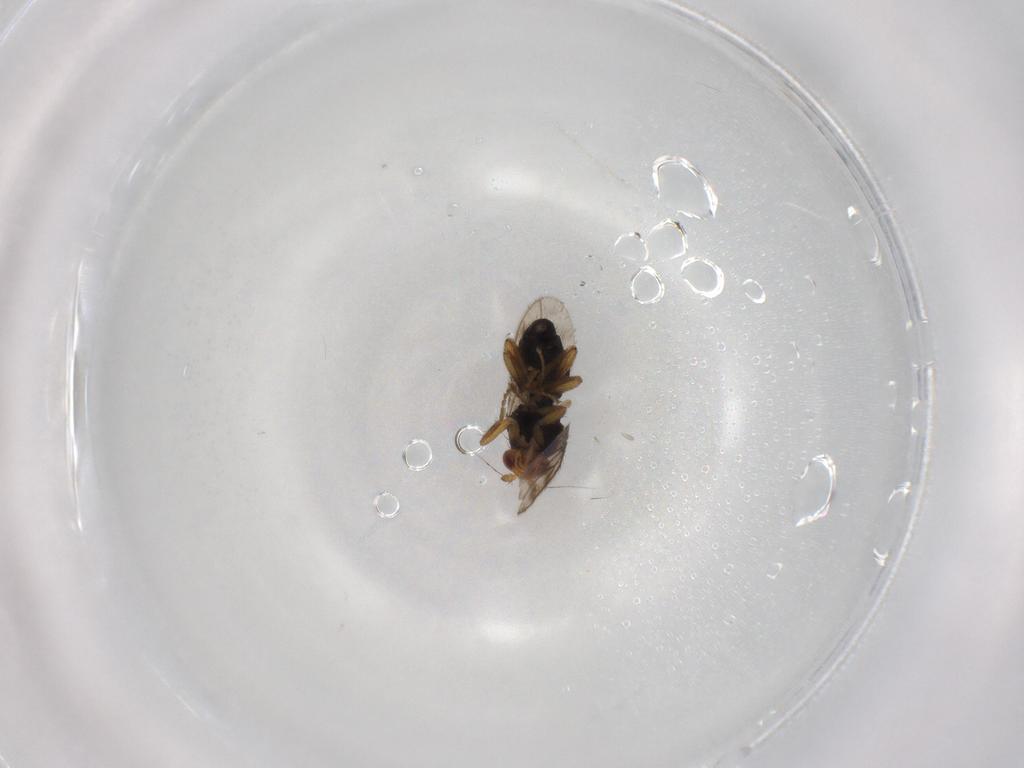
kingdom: Animalia
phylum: Arthropoda
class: Insecta
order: Diptera
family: Sphaeroceridae
